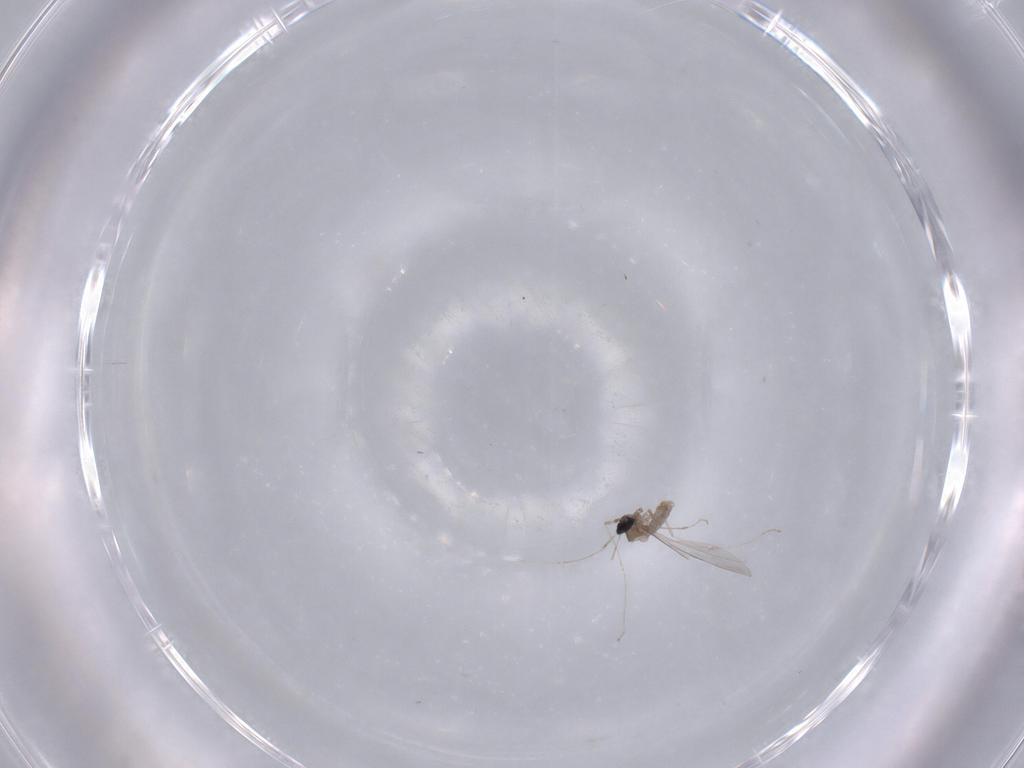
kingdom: Animalia
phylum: Arthropoda
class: Insecta
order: Diptera
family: Cecidomyiidae
